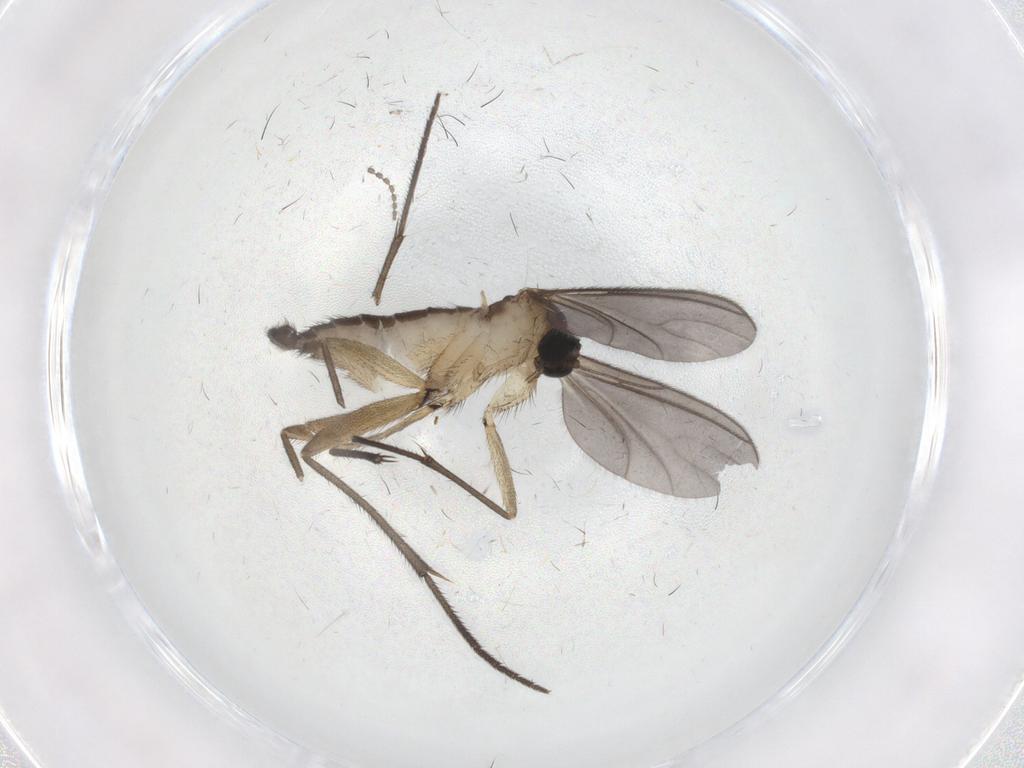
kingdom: Animalia
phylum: Arthropoda
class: Insecta
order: Diptera
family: Sciaridae
